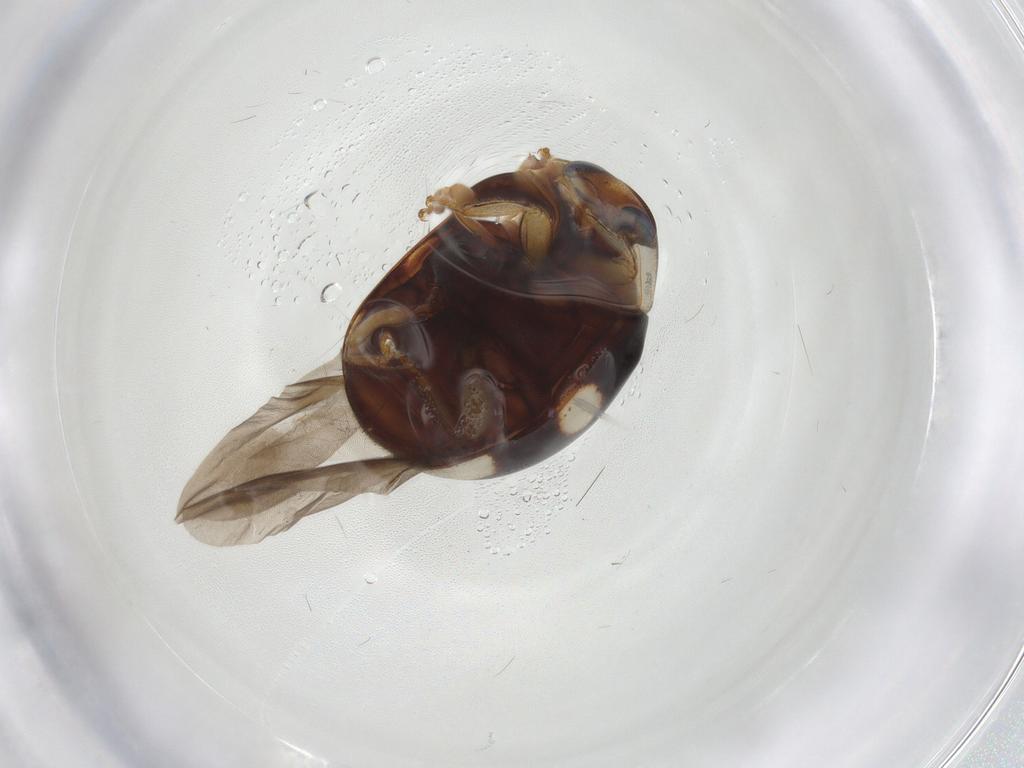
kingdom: Animalia
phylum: Arthropoda
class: Insecta
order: Coleoptera
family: Coccinellidae
